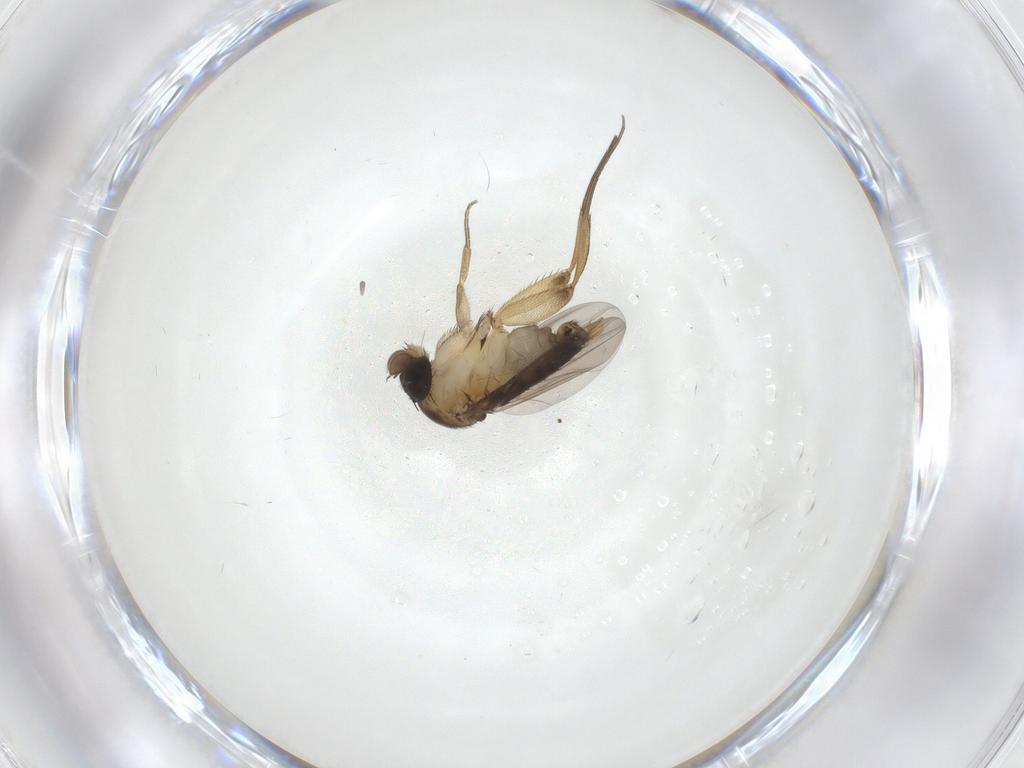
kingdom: Animalia
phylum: Arthropoda
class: Insecta
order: Diptera
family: Phoridae
